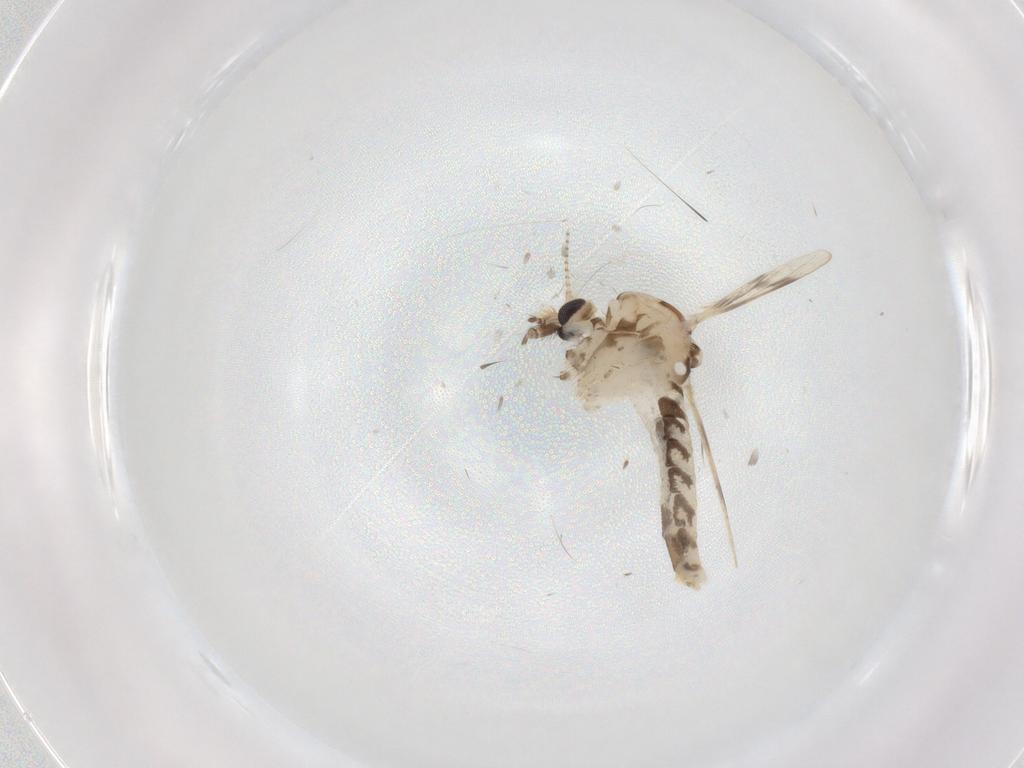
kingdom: Animalia
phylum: Arthropoda
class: Insecta
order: Diptera
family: Corethrellidae
